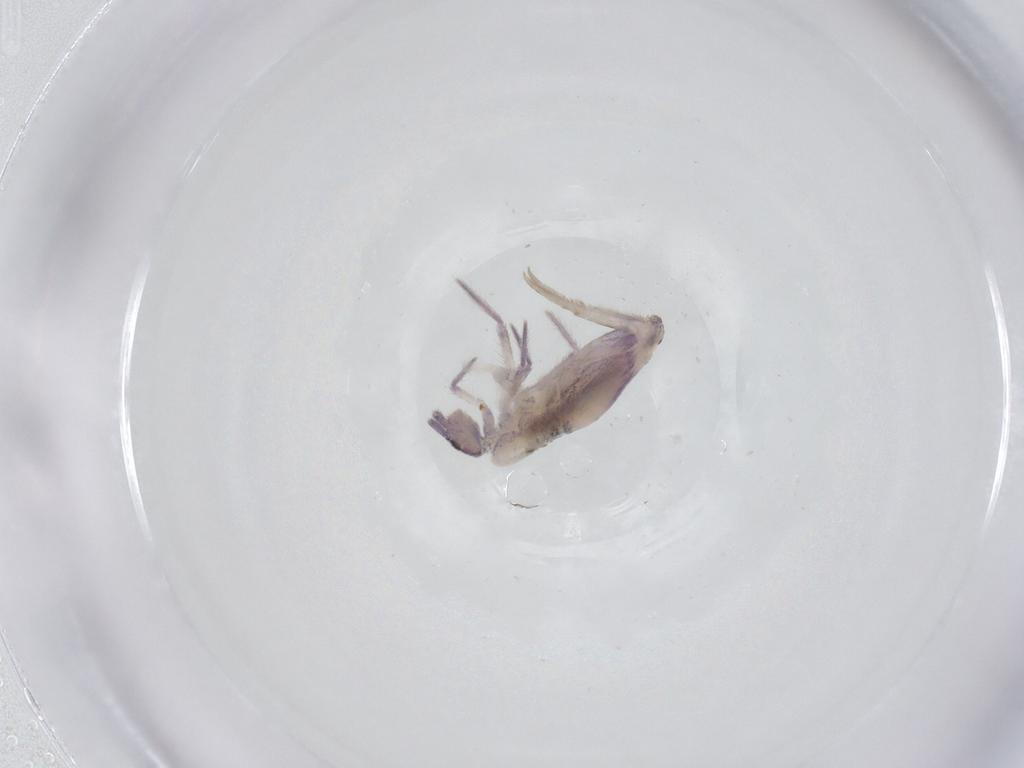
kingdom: Animalia
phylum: Arthropoda
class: Collembola
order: Entomobryomorpha
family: Entomobryidae
